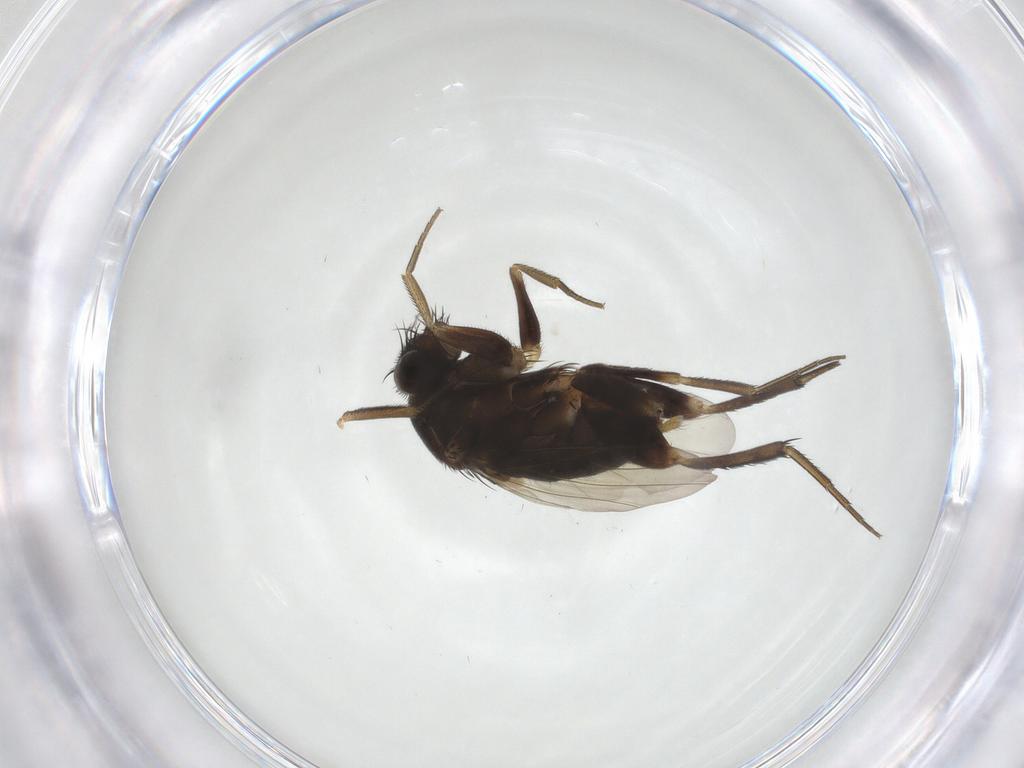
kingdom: Animalia
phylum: Arthropoda
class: Insecta
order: Diptera
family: Phoridae
